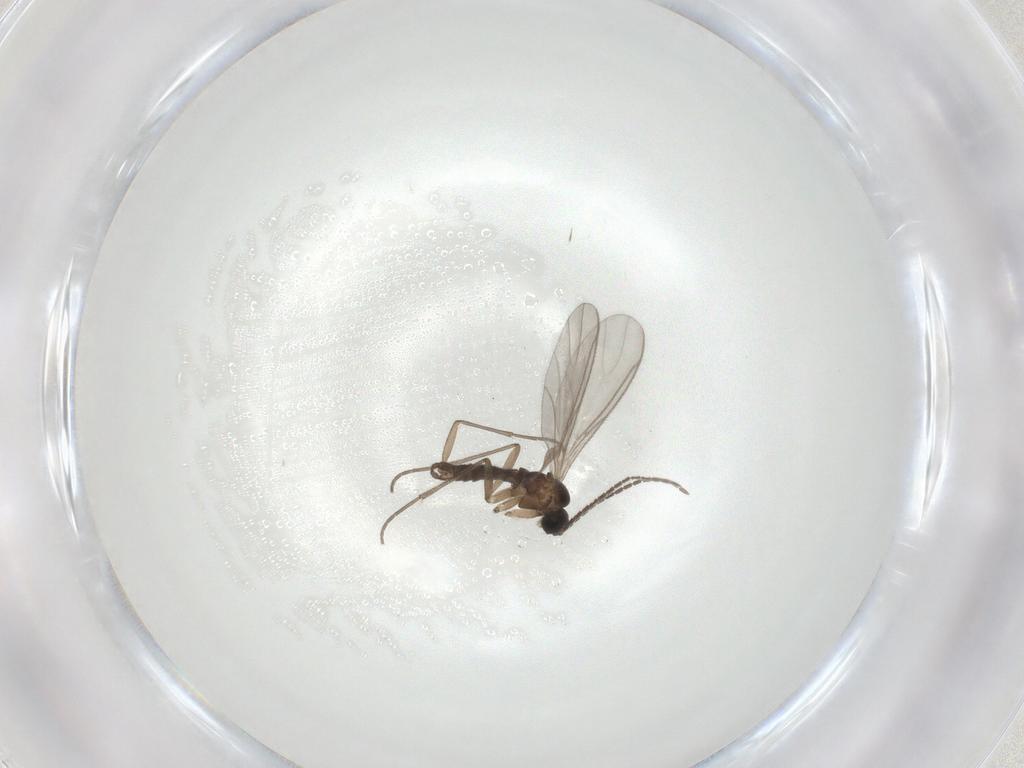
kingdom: Animalia
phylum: Arthropoda
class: Insecta
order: Diptera
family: Sciaridae
